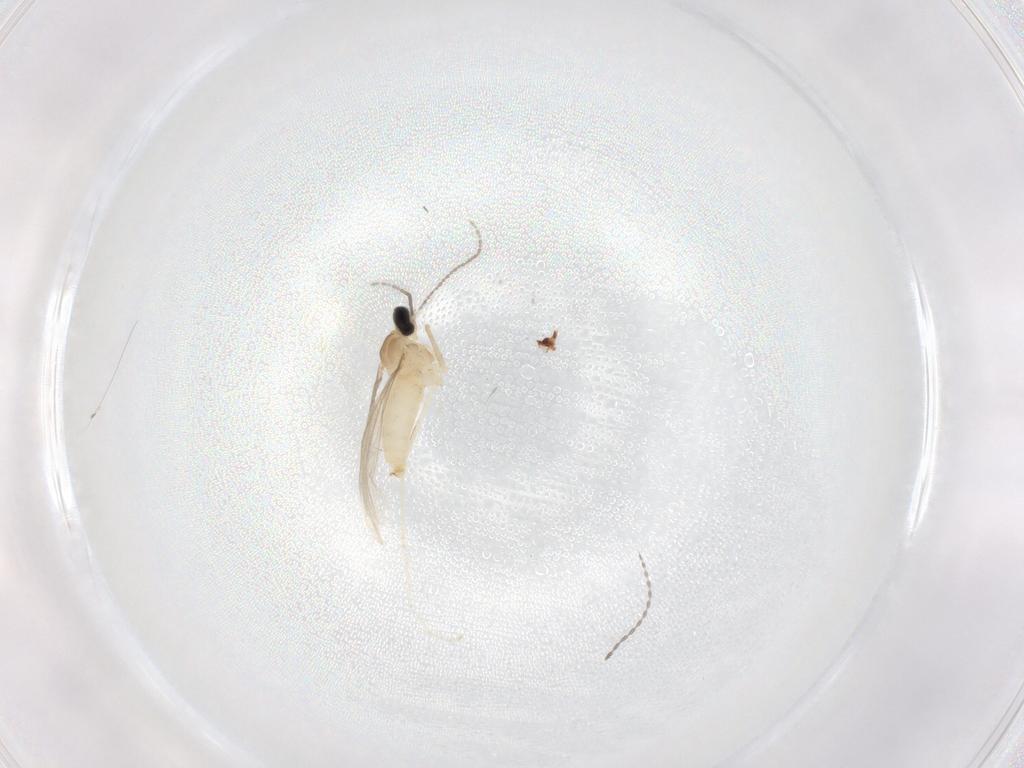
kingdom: Animalia
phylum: Arthropoda
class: Insecta
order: Diptera
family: Cecidomyiidae
